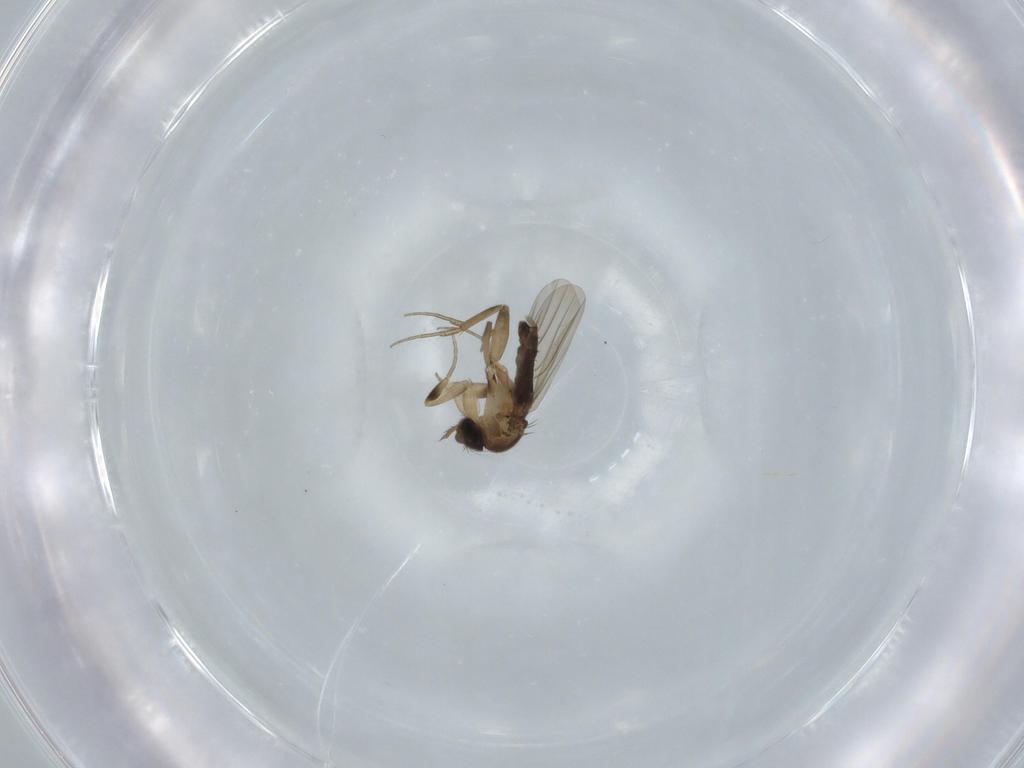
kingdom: Animalia
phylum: Arthropoda
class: Insecta
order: Diptera
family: Phoridae
